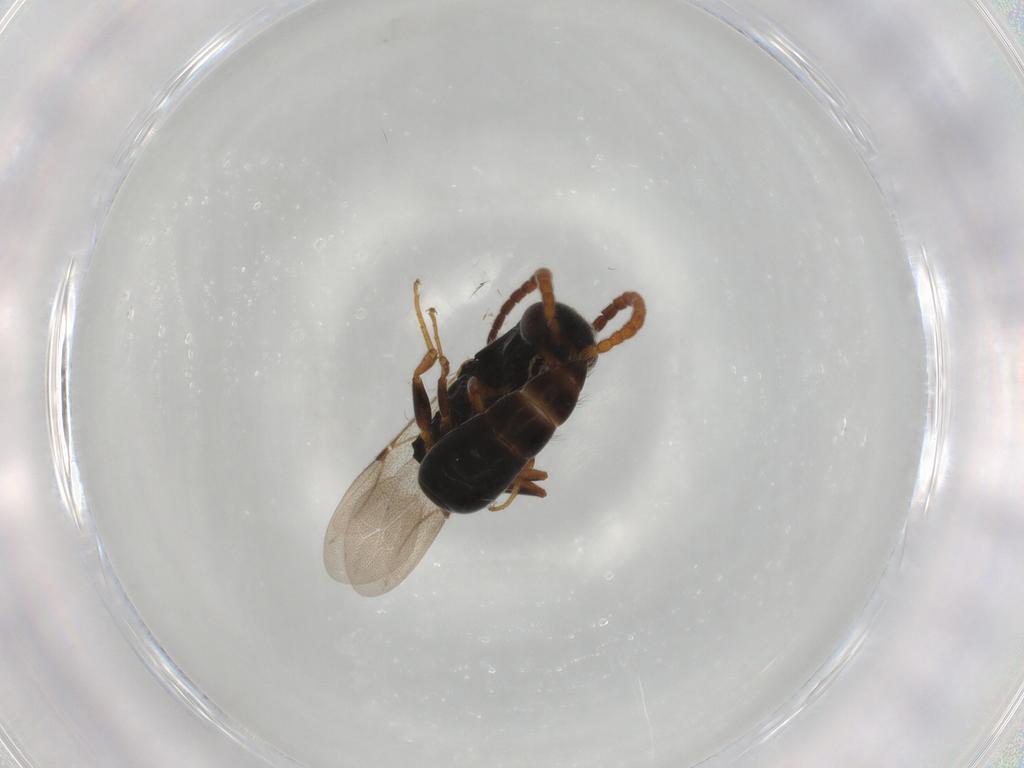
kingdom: Animalia
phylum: Arthropoda
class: Insecta
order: Hymenoptera
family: Bethylidae
